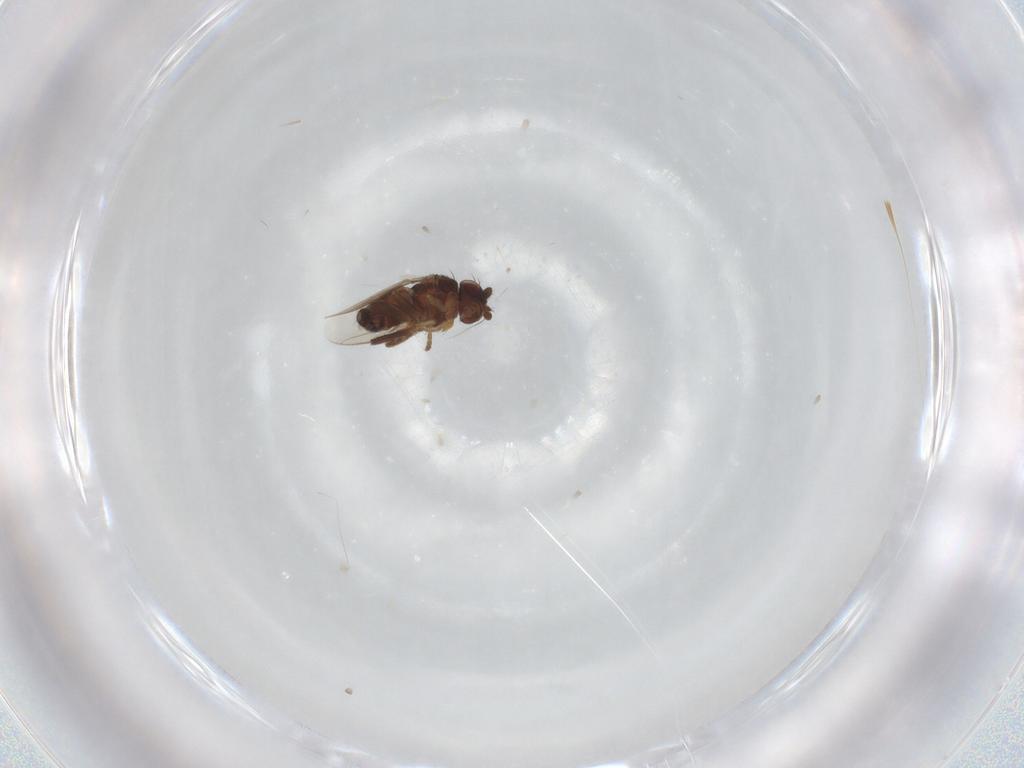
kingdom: Animalia
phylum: Arthropoda
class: Insecta
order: Diptera
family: Sphaeroceridae
